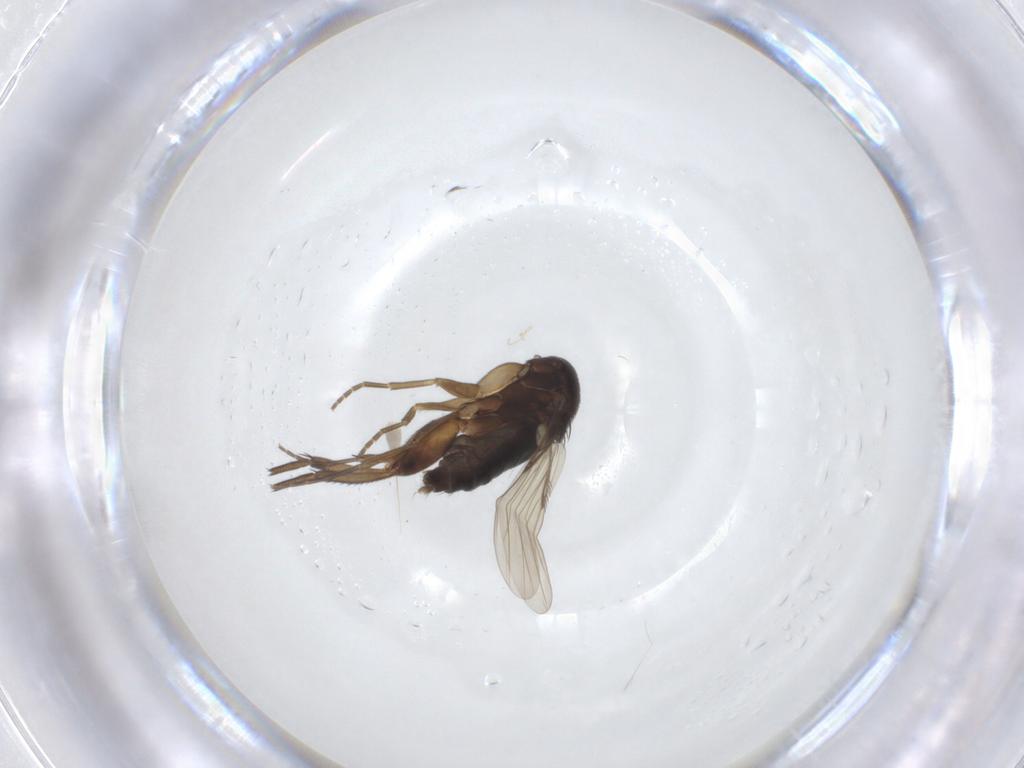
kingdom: Animalia
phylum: Arthropoda
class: Insecta
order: Diptera
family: Phoridae
